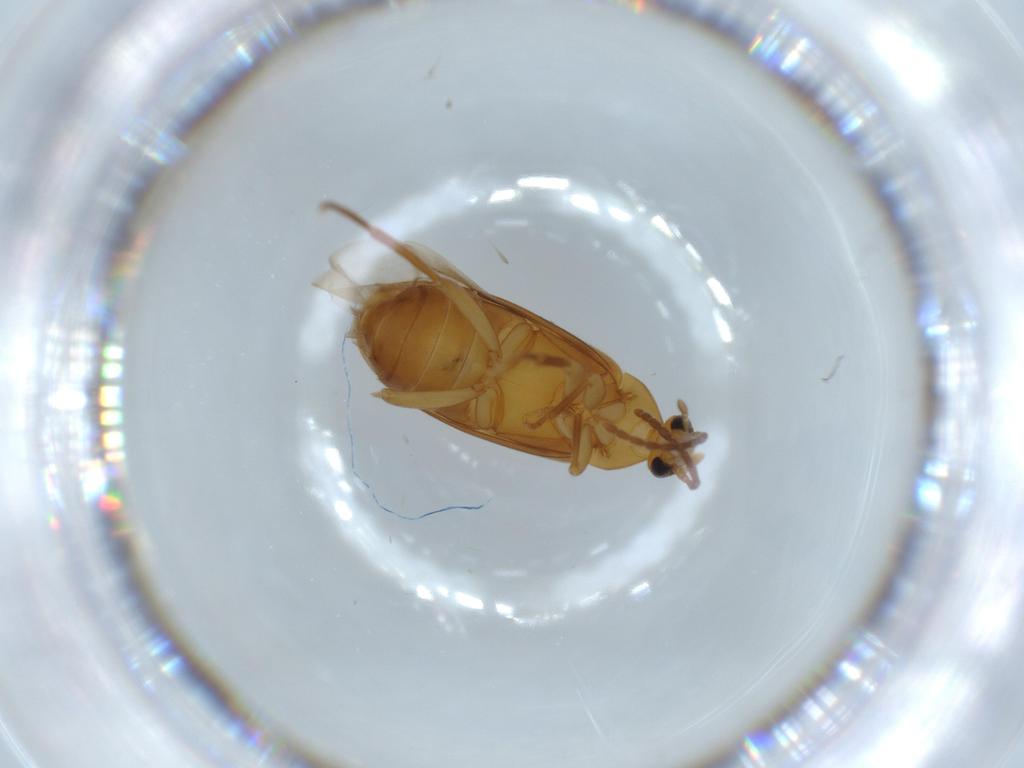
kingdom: Animalia
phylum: Arthropoda
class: Insecta
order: Coleoptera
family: Scraptiidae
